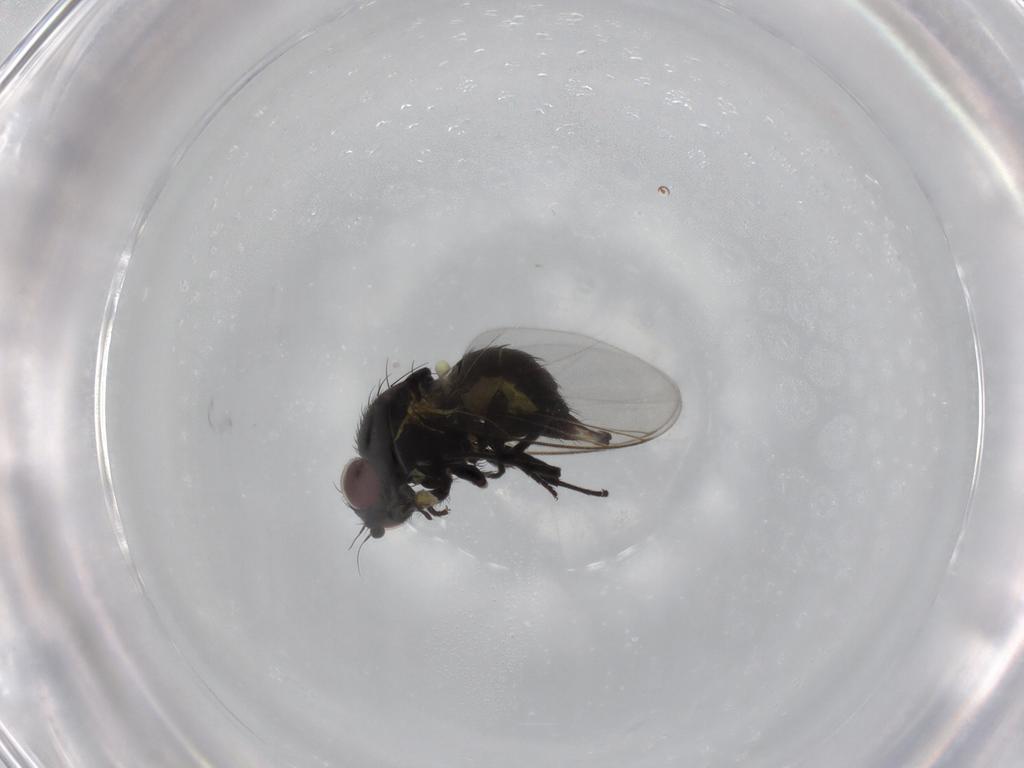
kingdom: Animalia
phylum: Arthropoda
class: Insecta
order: Diptera
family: Agromyzidae
